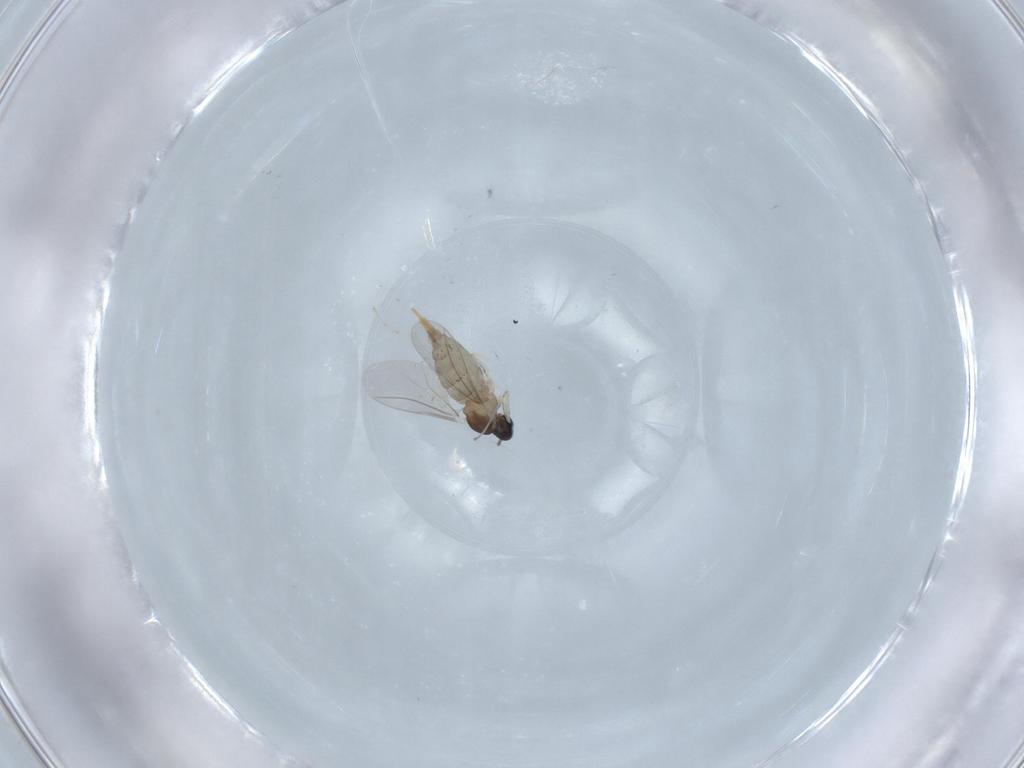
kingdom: Animalia
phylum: Arthropoda
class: Insecta
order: Diptera
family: Cecidomyiidae
